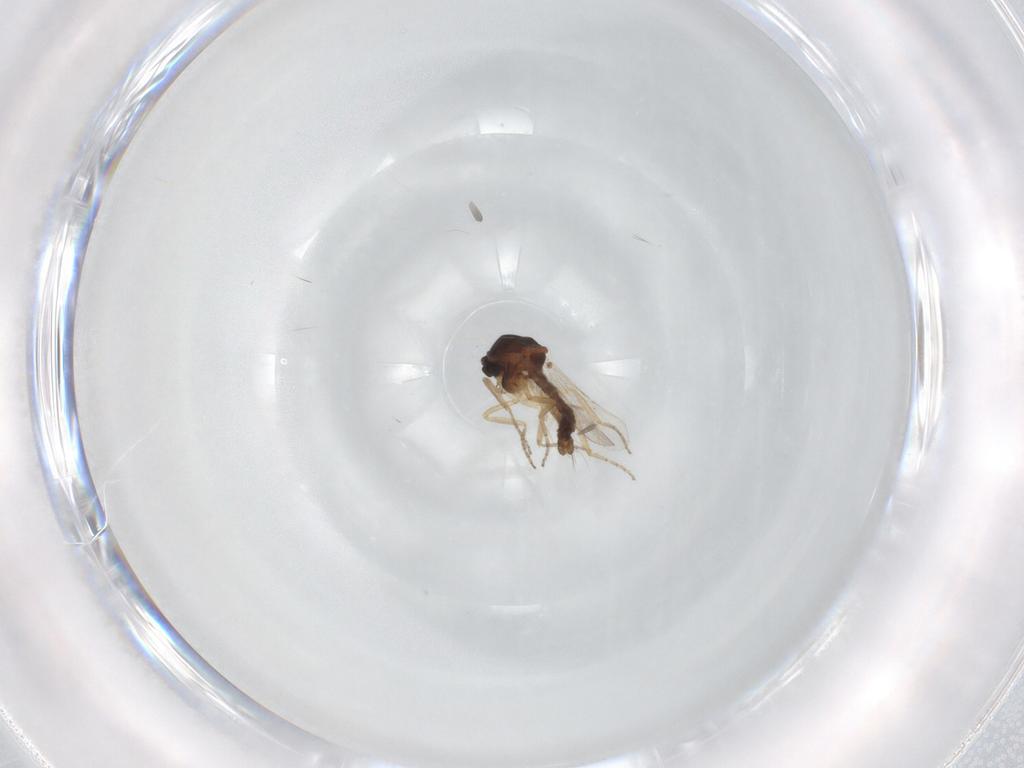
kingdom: Animalia
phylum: Arthropoda
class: Insecta
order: Diptera
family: Ceratopogonidae
